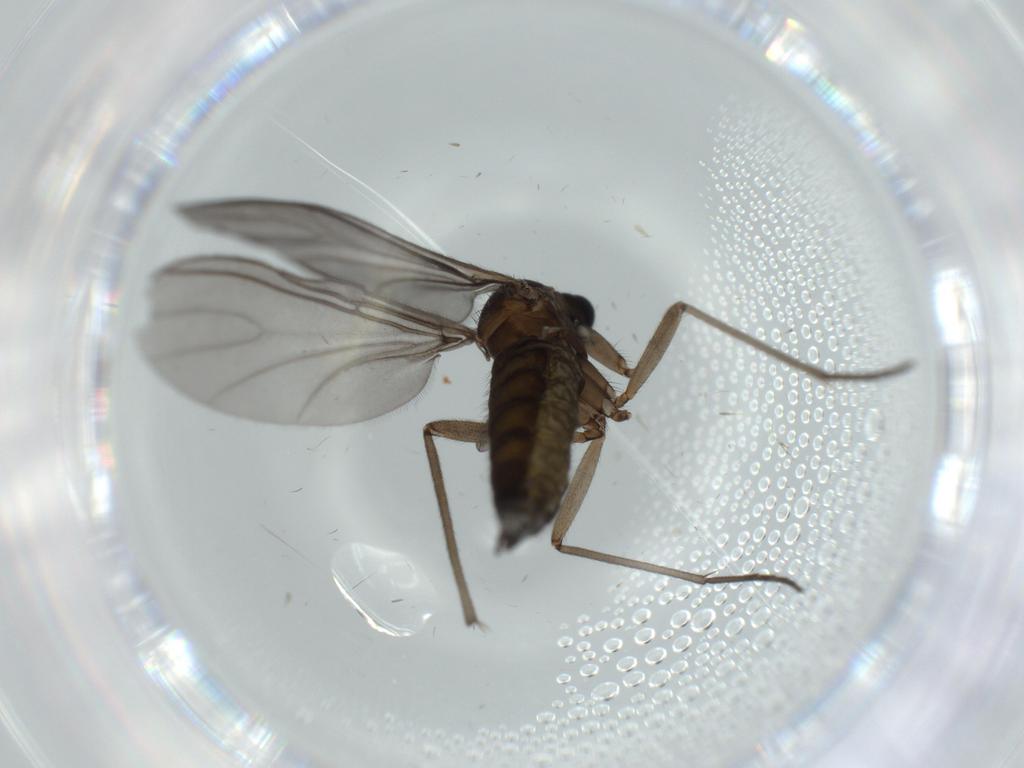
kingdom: Animalia
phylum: Arthropoda
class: Insecta
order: Diptera
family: Sciaridae
